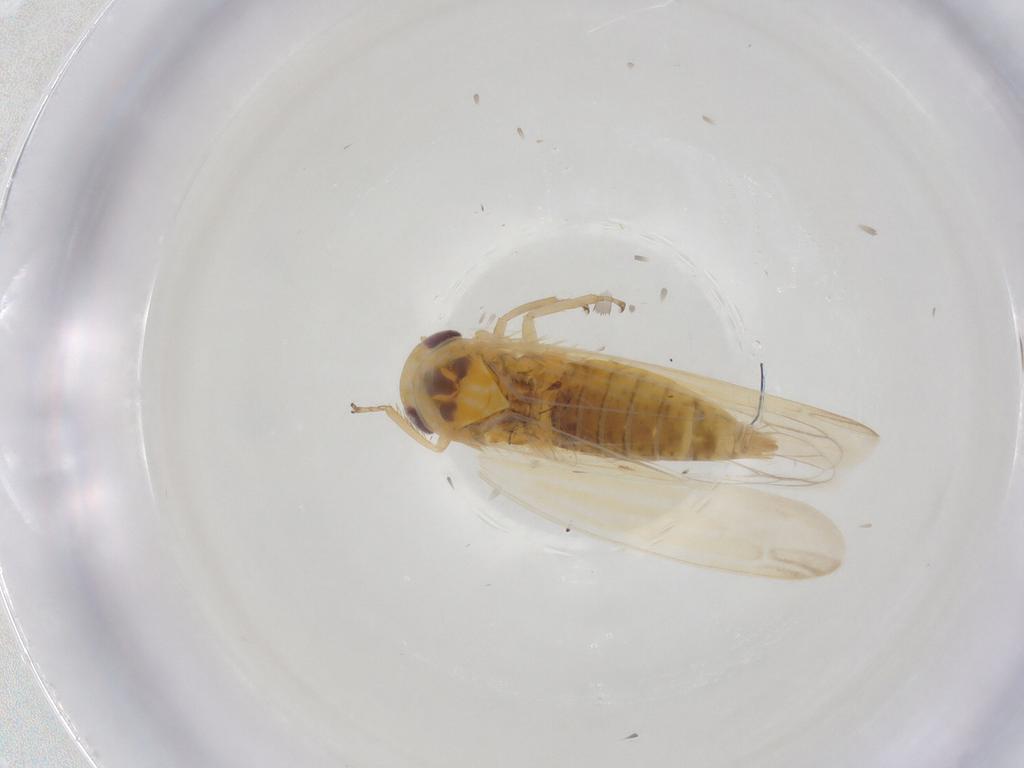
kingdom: Animalia
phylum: Arthropoda
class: Insecta
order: Hemiptera
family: Cicadellidae
